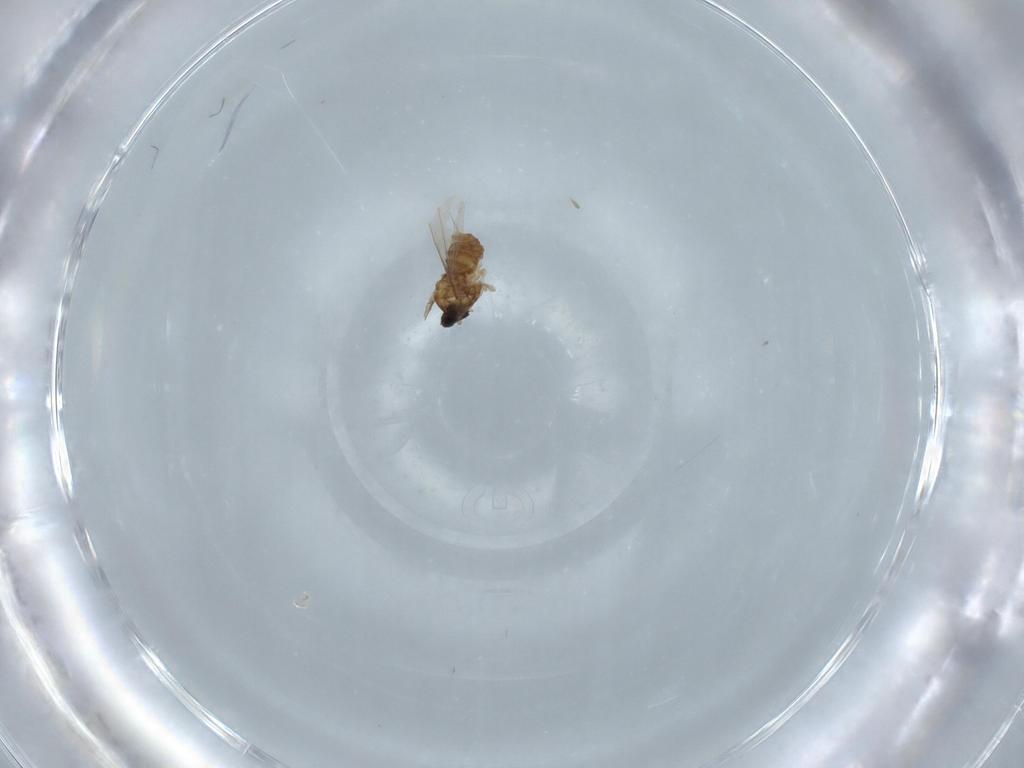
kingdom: Animalia
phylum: Arthropoda
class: Insecta
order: Diptera
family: Cecidomyiidae
